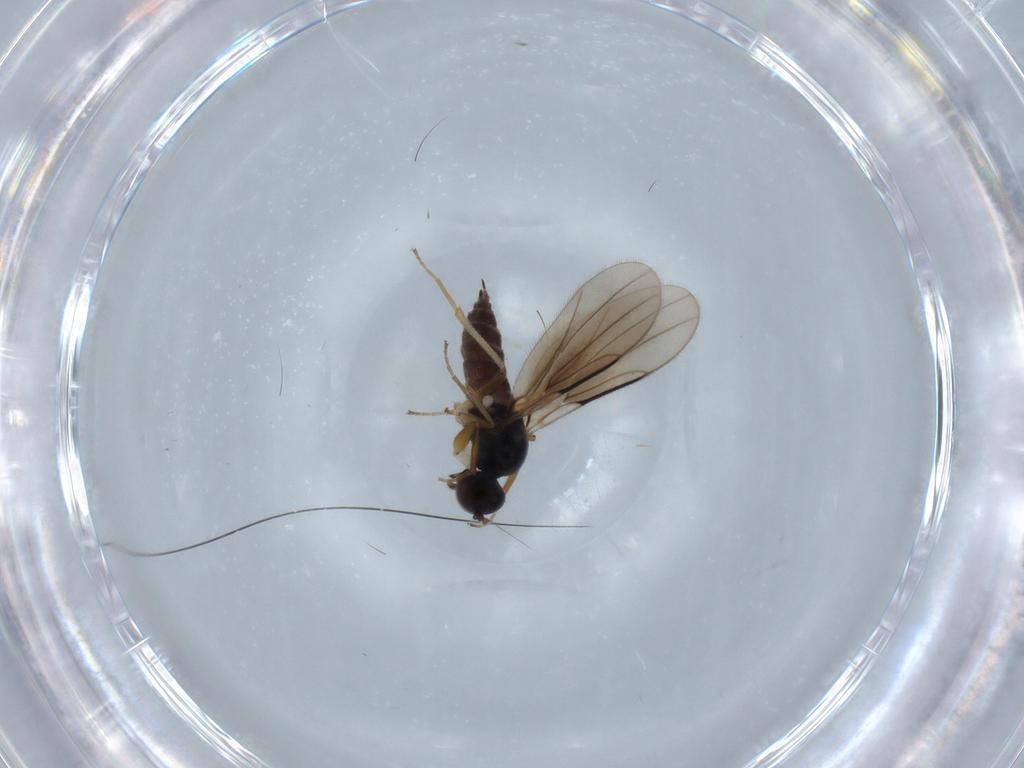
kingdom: Animalia
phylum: Arthropoda
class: Insecta
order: Diptera
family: Hybotidae
